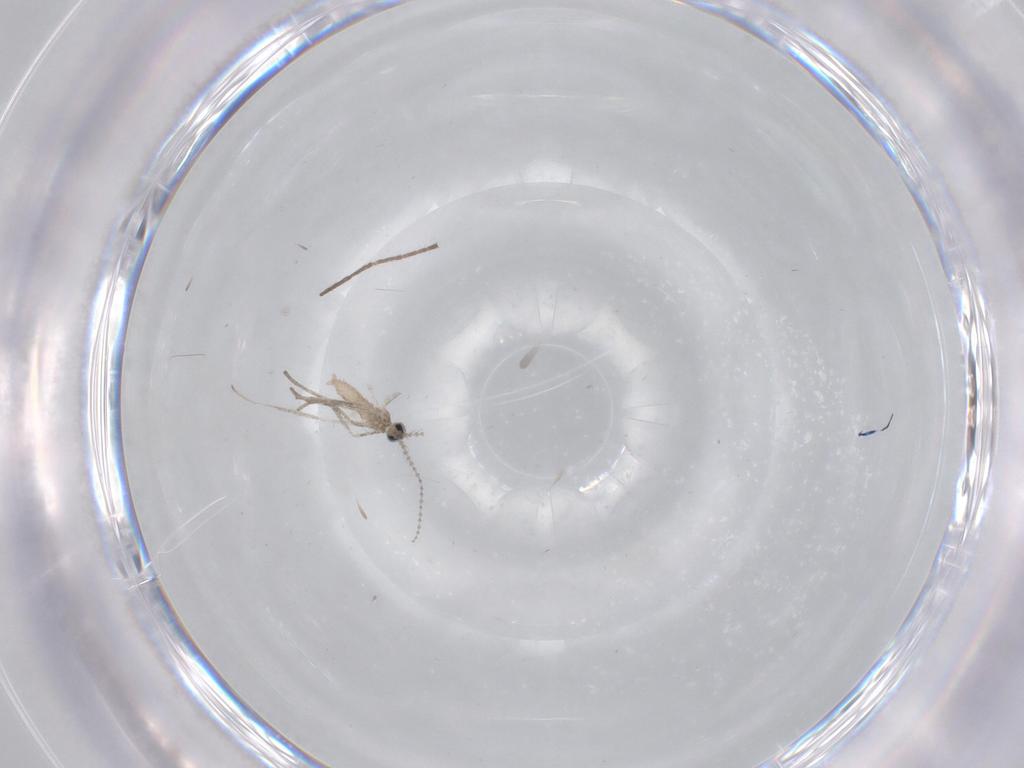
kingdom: Animalia
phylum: Arthropoda
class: Insecta
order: Diptera
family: Cecidomyiidae
